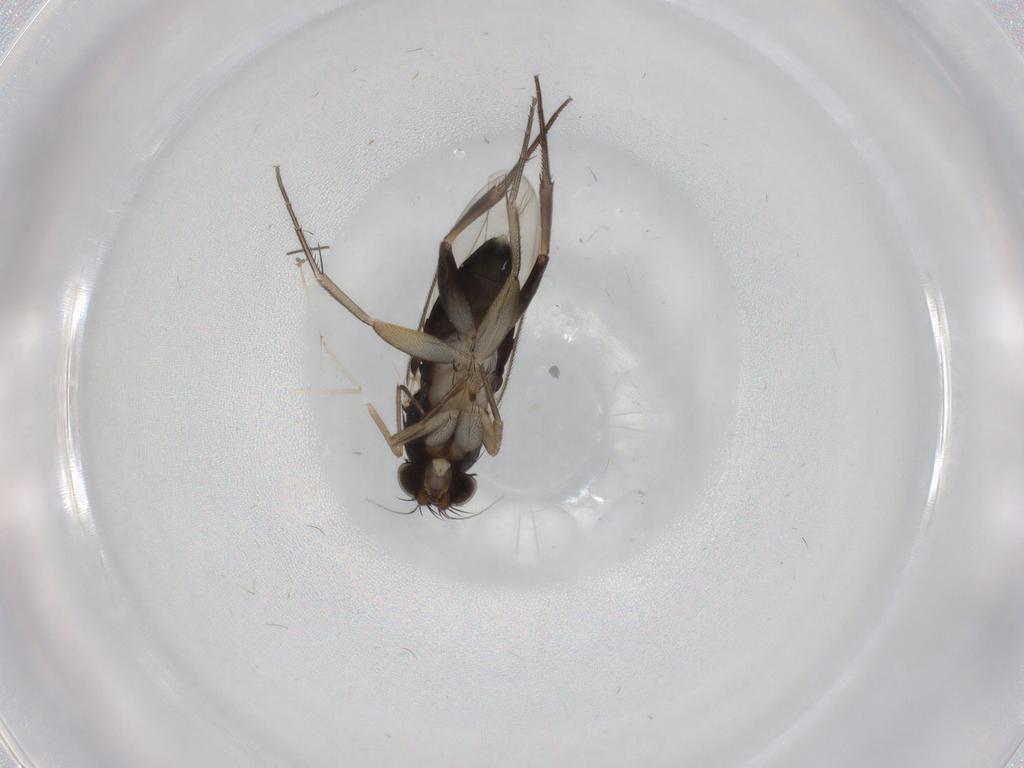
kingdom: Animalia
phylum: Arthropoda
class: Insecta
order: Diptera
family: Phoridae
